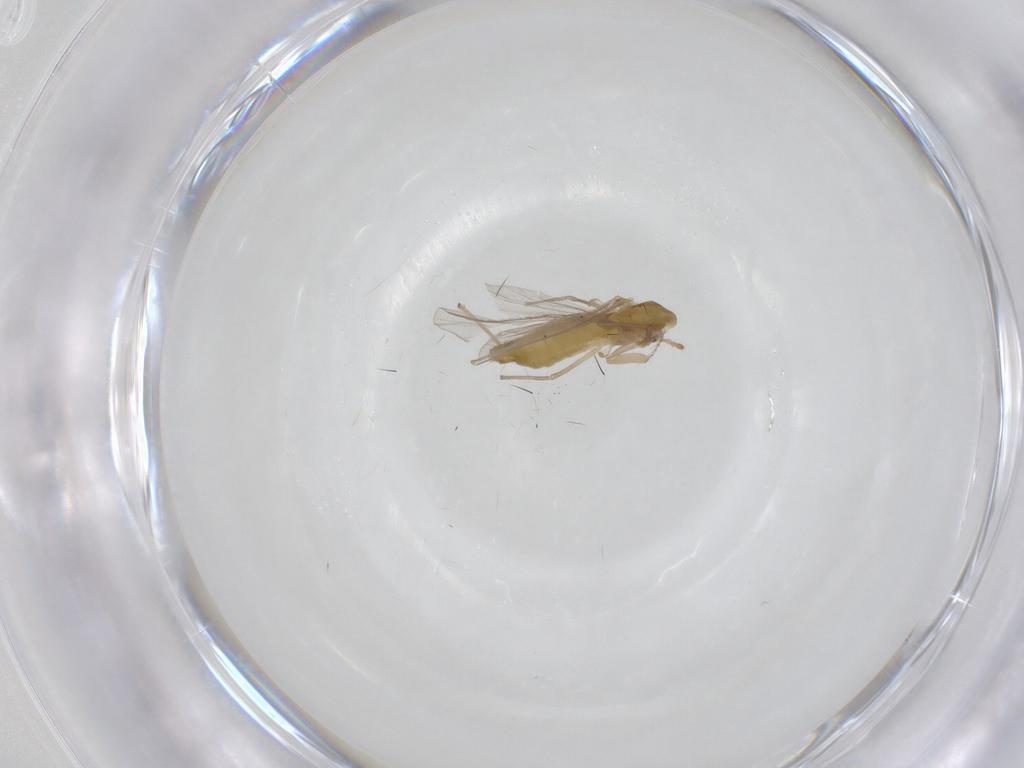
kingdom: Animalia
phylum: Arthropoda
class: Insecta
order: Diptera
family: Chironomidae
